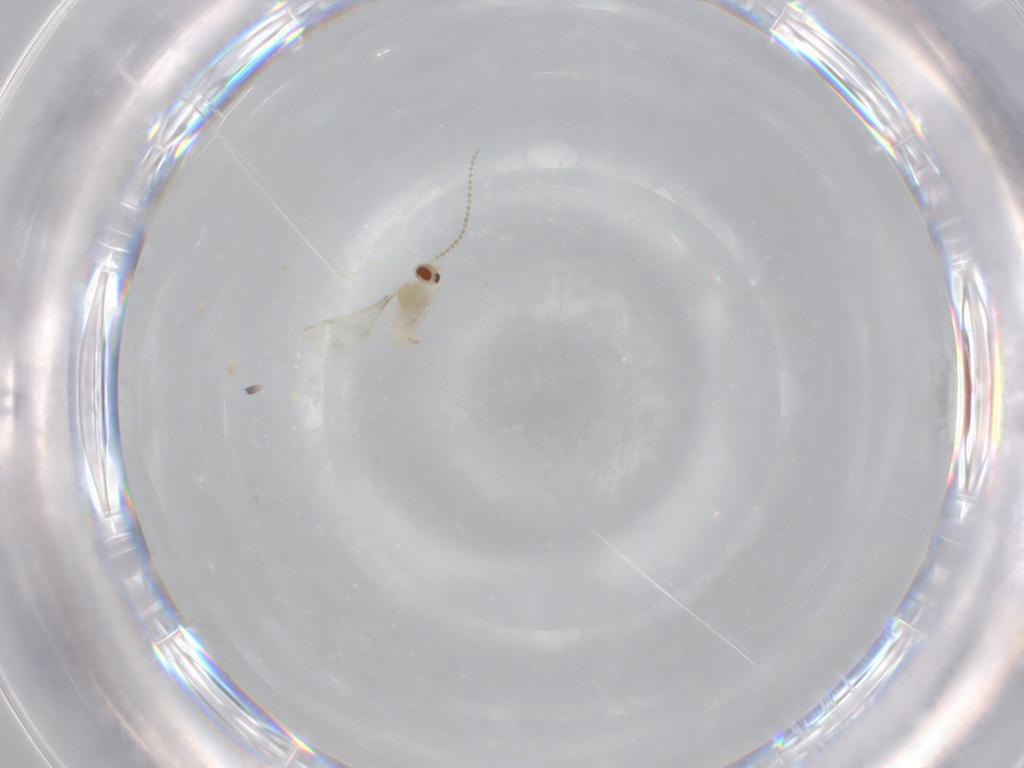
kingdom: Animalia
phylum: Arthropoda
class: Insecta
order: Diptera
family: Cecidomyiidae
